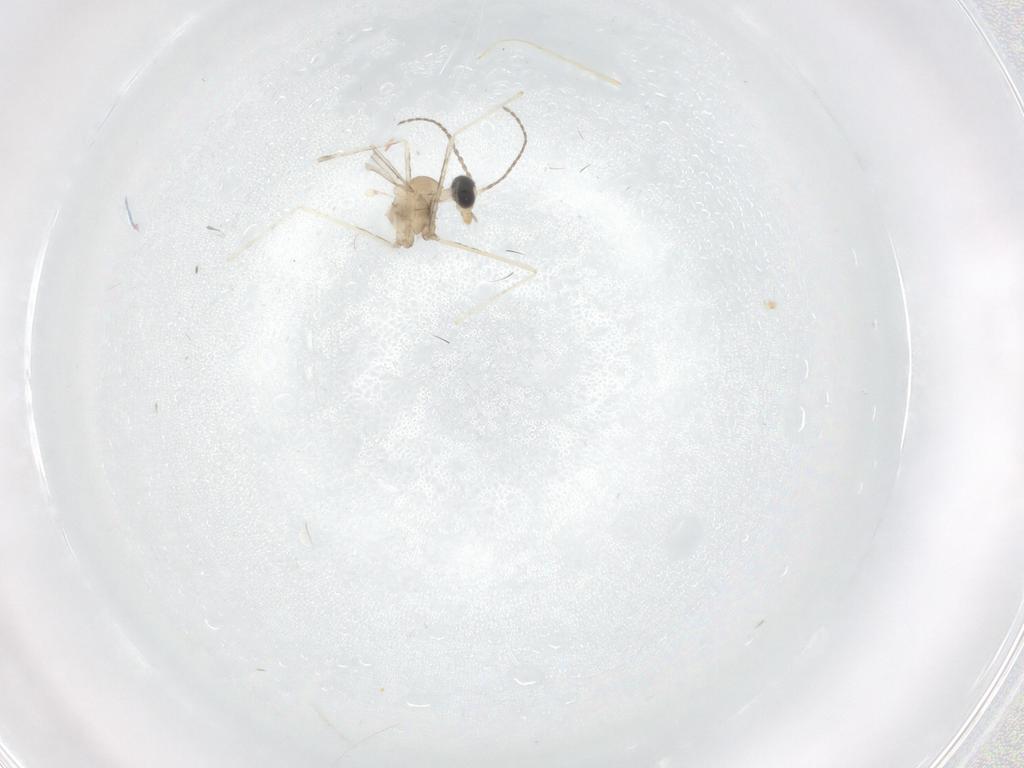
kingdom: Animalia
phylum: Arthropoda
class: Insecta
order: Diptera
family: Cecidomyiidae
